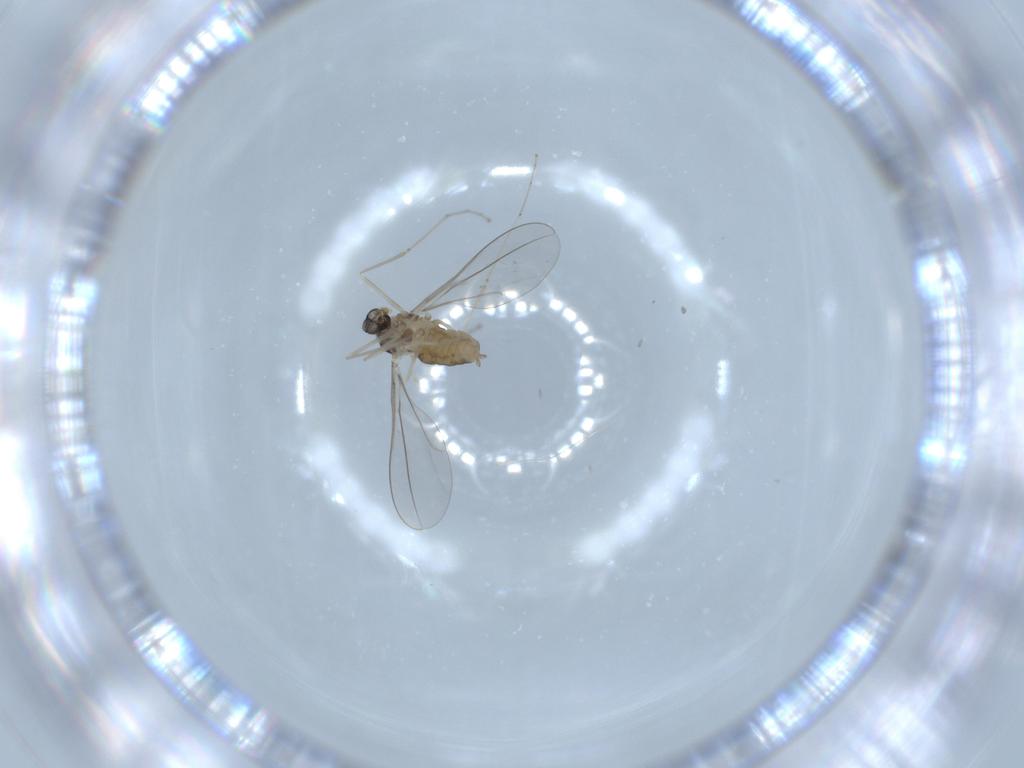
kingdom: Animalia
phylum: Arthropoda
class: Insecta
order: Diptera
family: Cecidomyiidae
